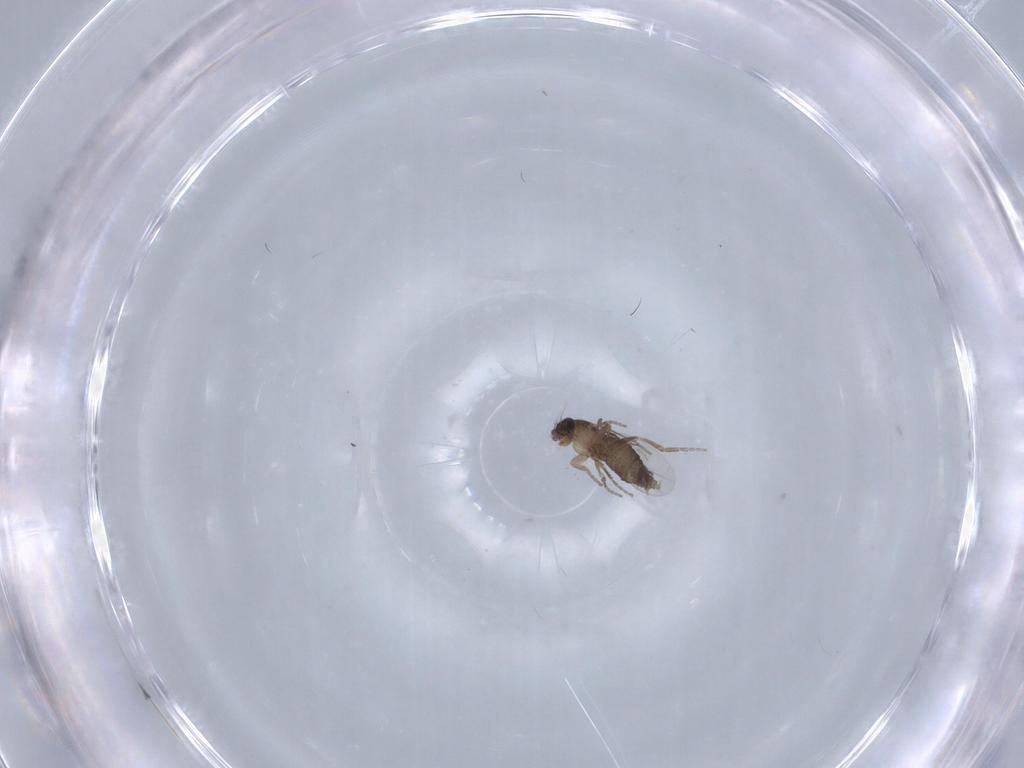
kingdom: Animalia
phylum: Arthropoda
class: Insecta
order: Diptera
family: Phoridae
